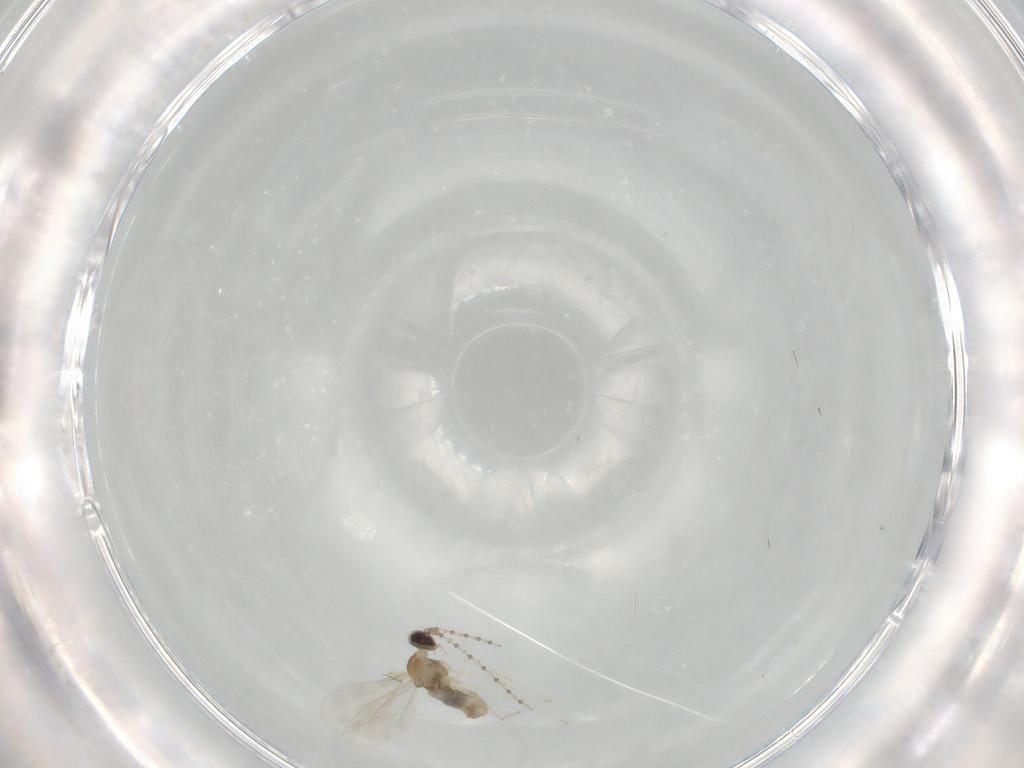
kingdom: Animalia
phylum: Arthropoda
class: Insecta
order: Diptera
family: Cecidomyiidae
